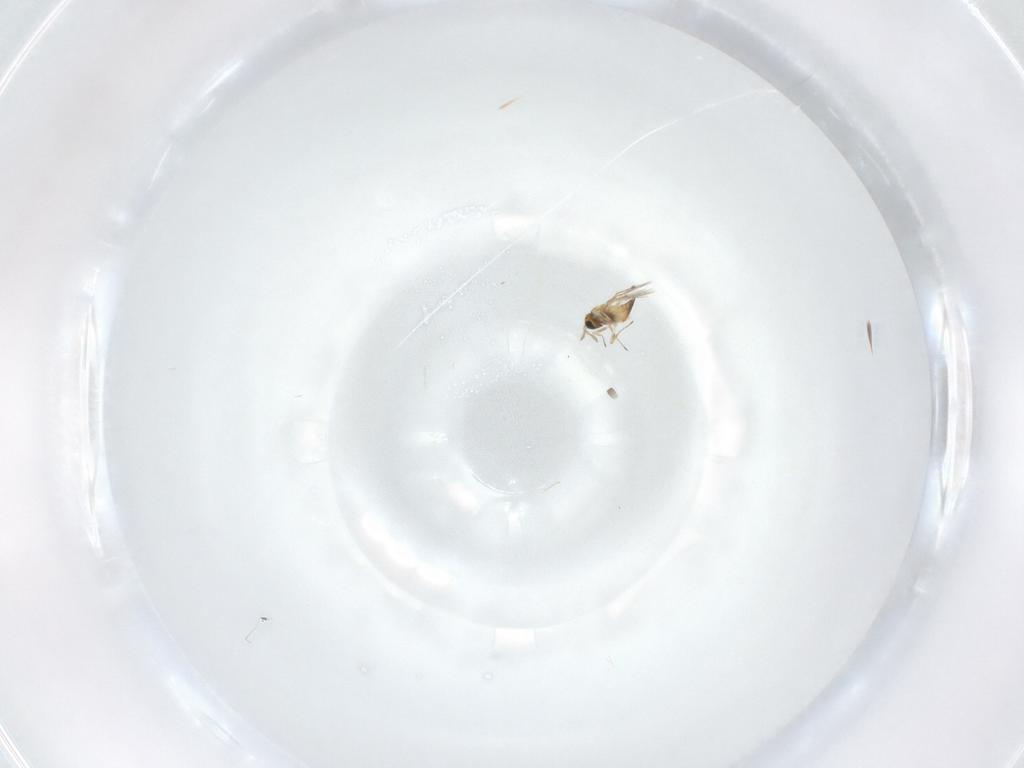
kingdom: Animalia
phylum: Arthropoda
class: Insecta
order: Hymenoptera
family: Trichogrammatidae
